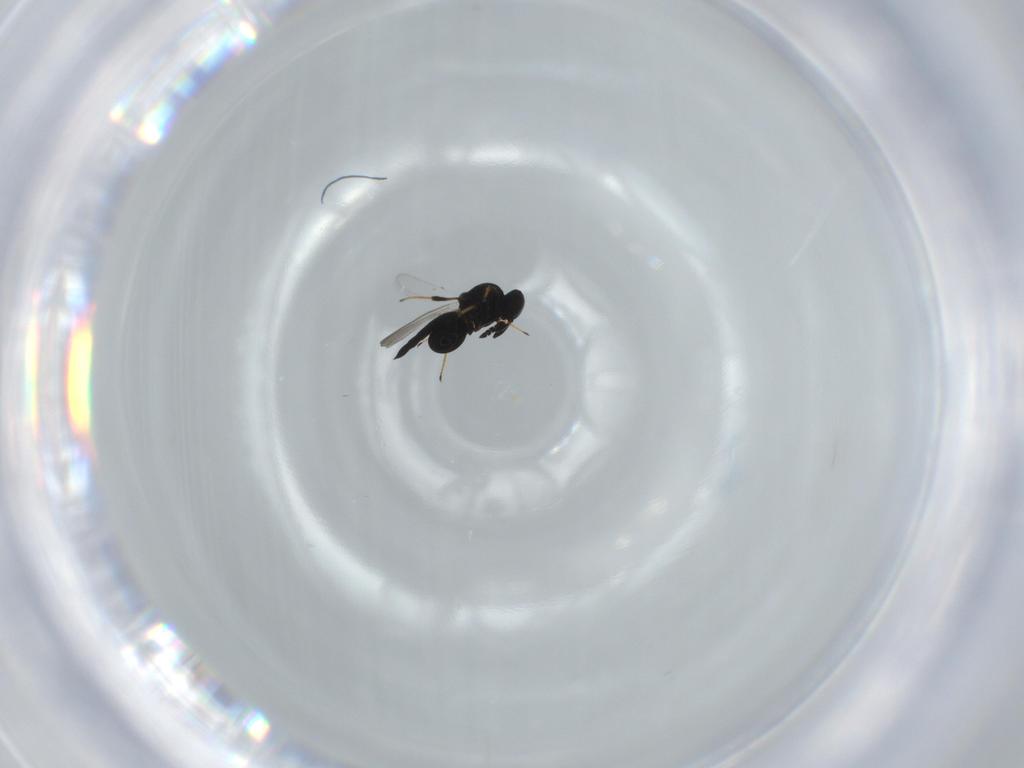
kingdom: Animalia
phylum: Arthropoda
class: Insecta
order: Hymenoptera
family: Platygastridae
